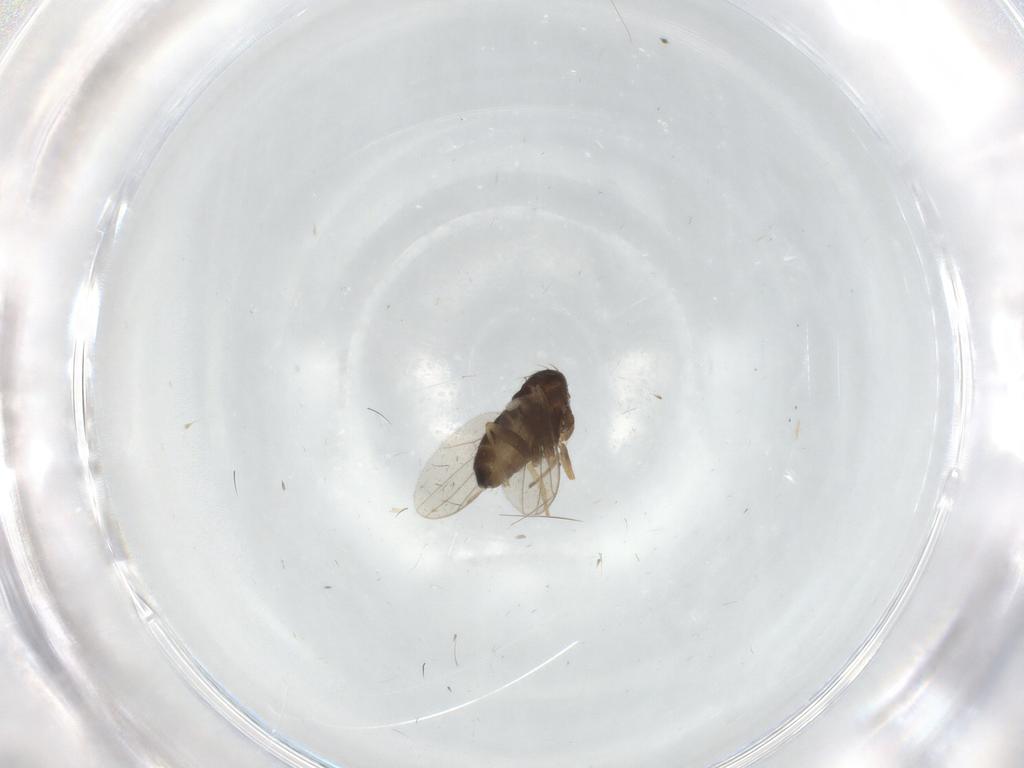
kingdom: Animalia
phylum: Arthropoda
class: Insecta
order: Diptera
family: Dolichopodidae
